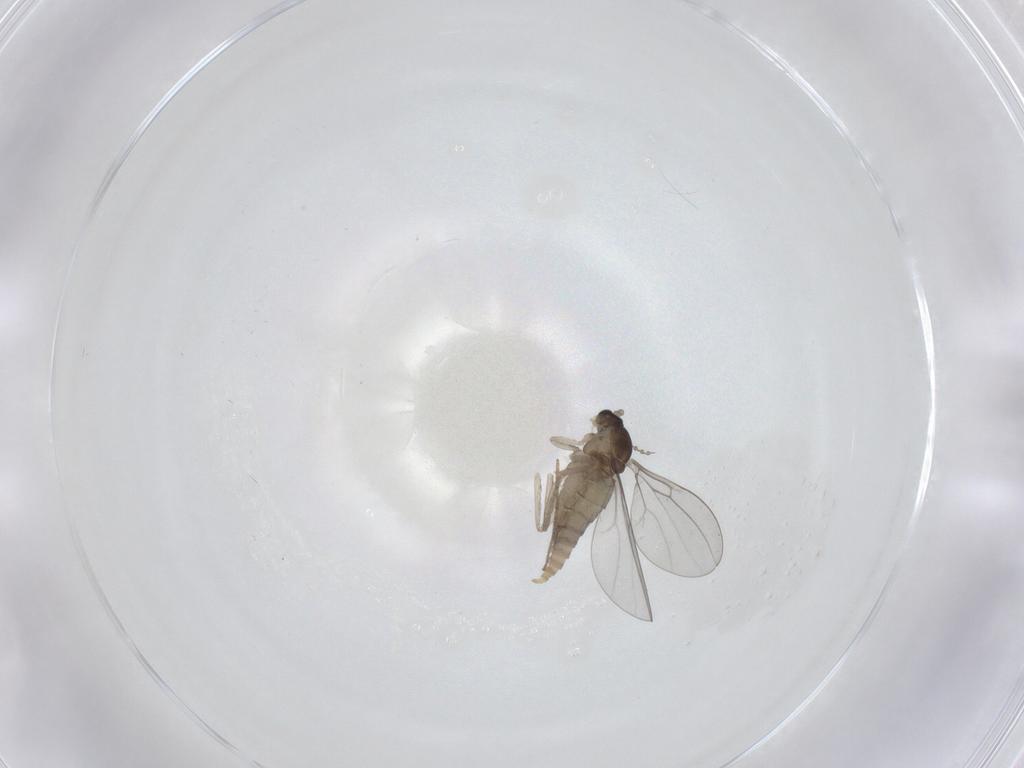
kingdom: Animalia
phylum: Arthropoda
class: Insecta
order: Diptera
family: Cecidomyiidae
